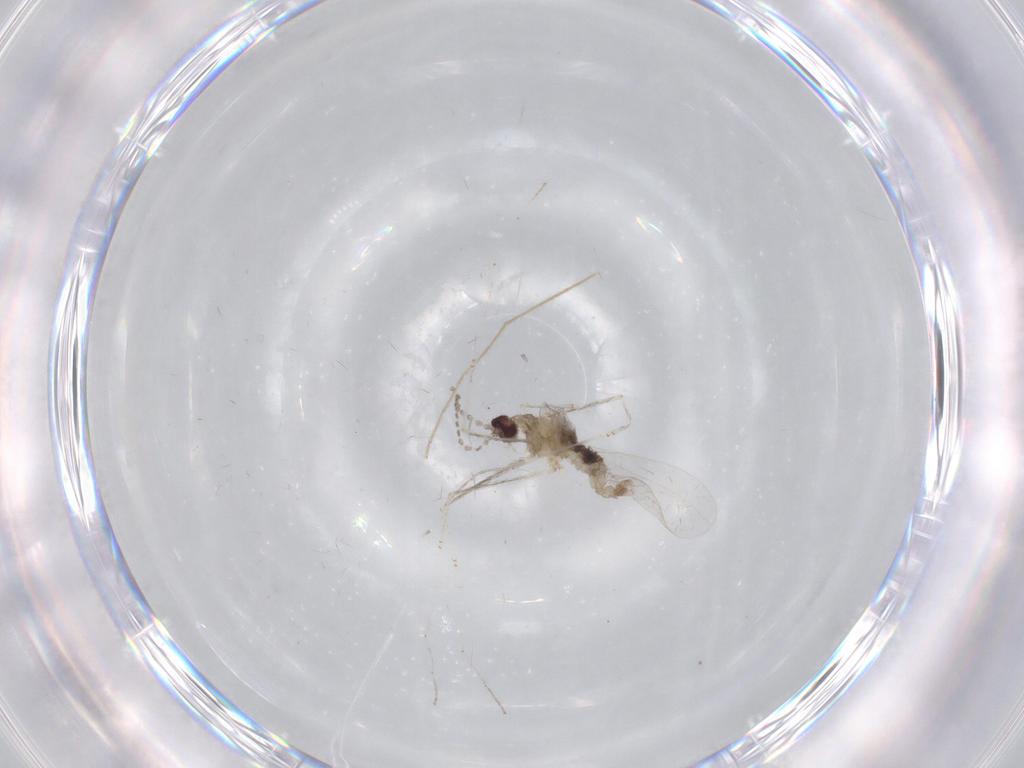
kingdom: Animalia
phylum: Arthropoda
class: Insecta
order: Diptera
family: Cecidomyiidae
